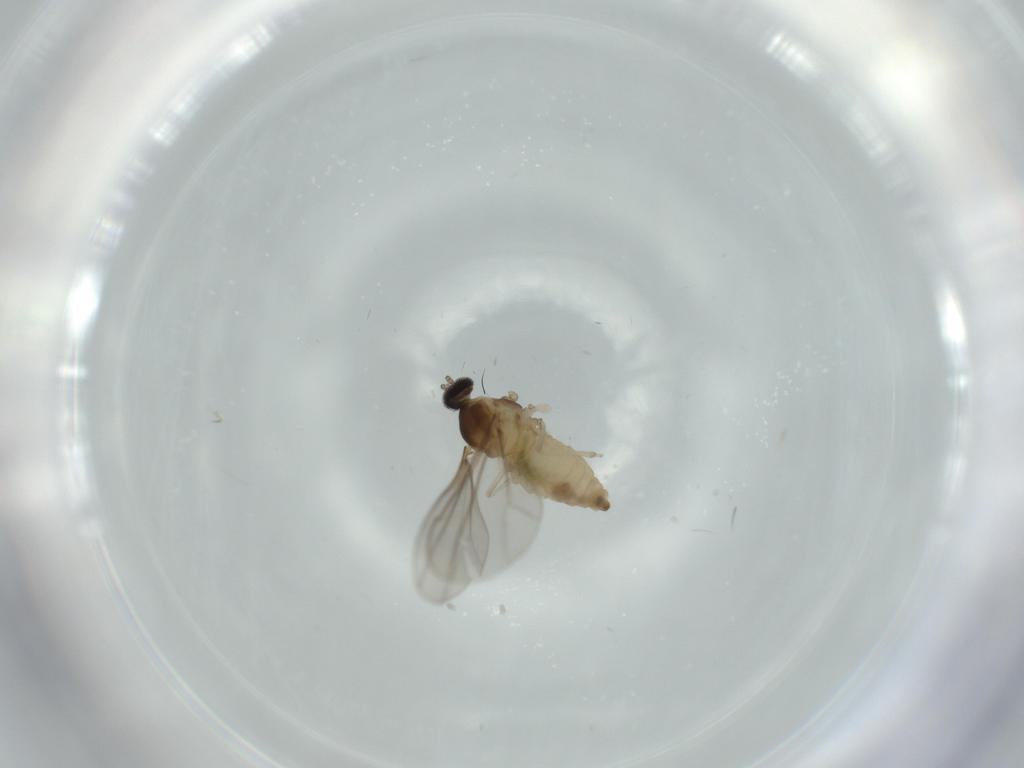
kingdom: Animalia
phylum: Arthropoda
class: Insecta
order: Diptera
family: Cecidomyiidae
